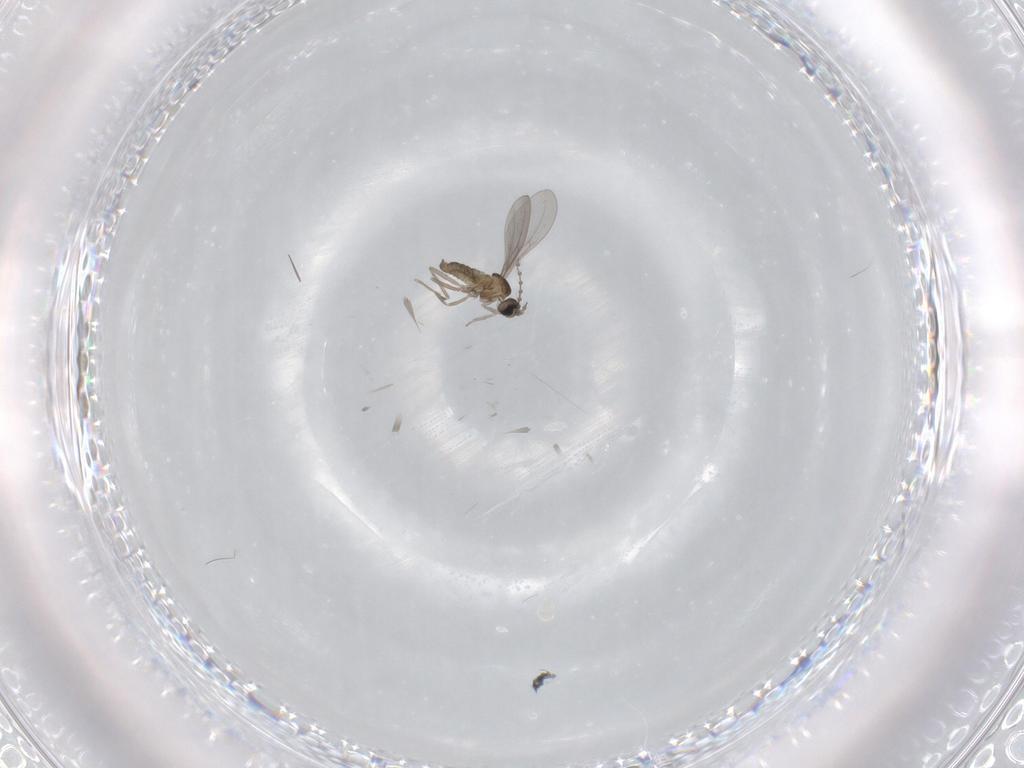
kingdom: Animalia
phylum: Arthropoda
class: Insecta
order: Diptera
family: Cecidomyiidae
